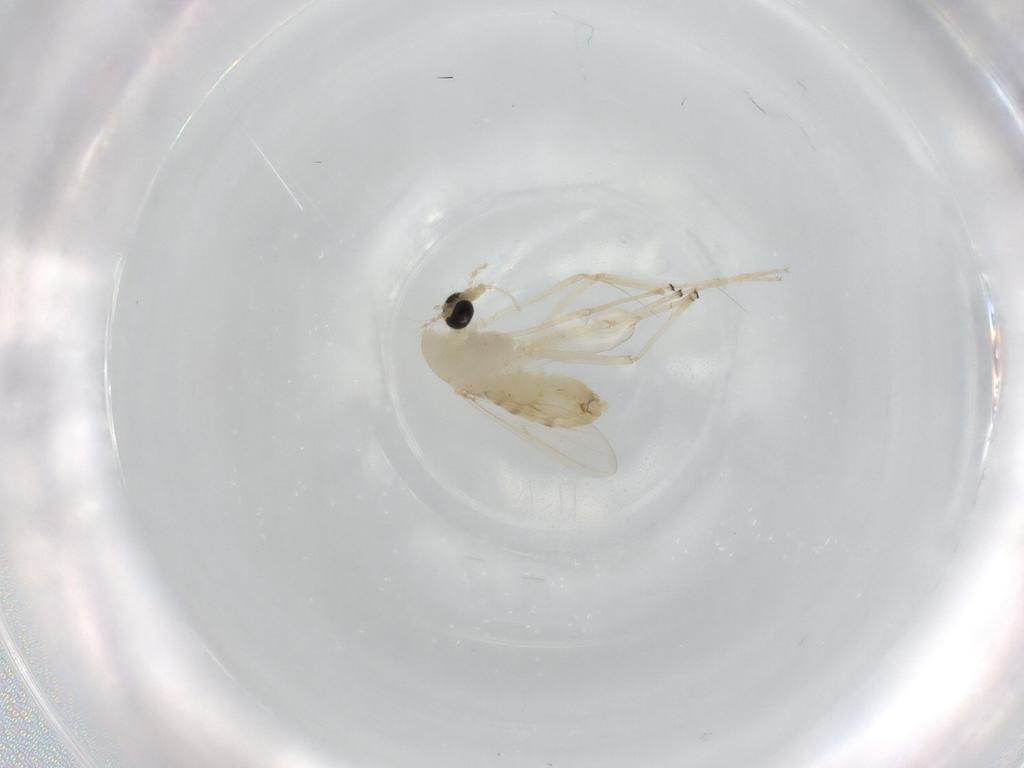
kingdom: Animalia
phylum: Arthropoda
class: Insecta
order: Diptera
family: Chironomidae
